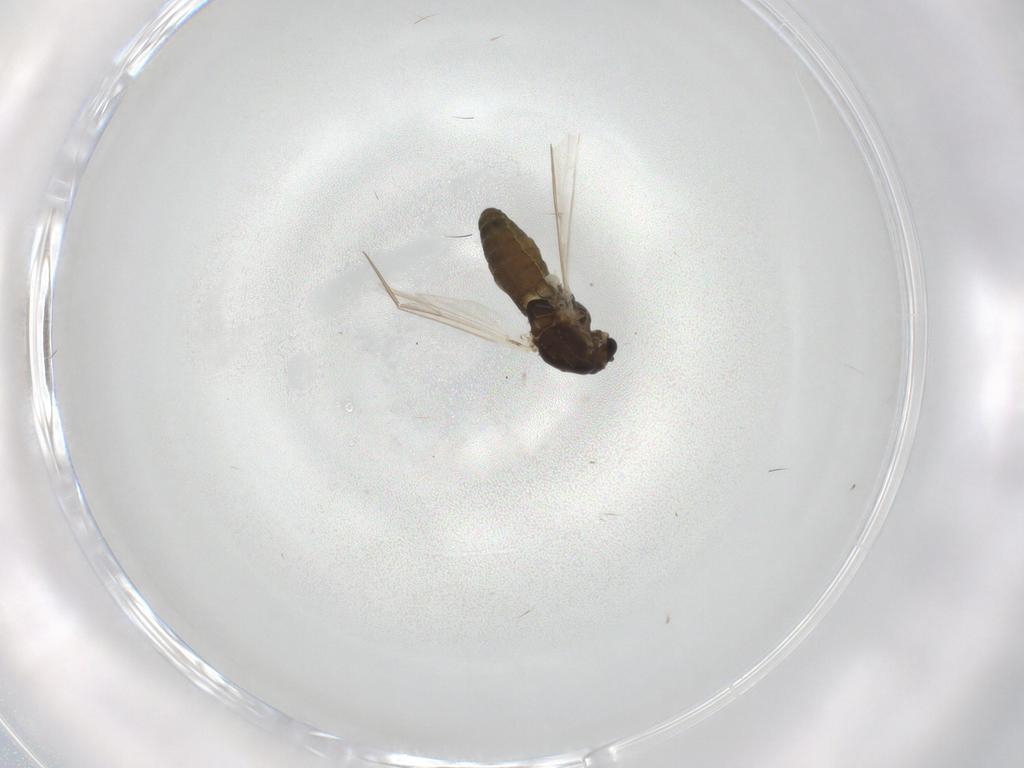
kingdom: Animalia
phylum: Arthropoda
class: Insecta
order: Diptera
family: Chironomidae
